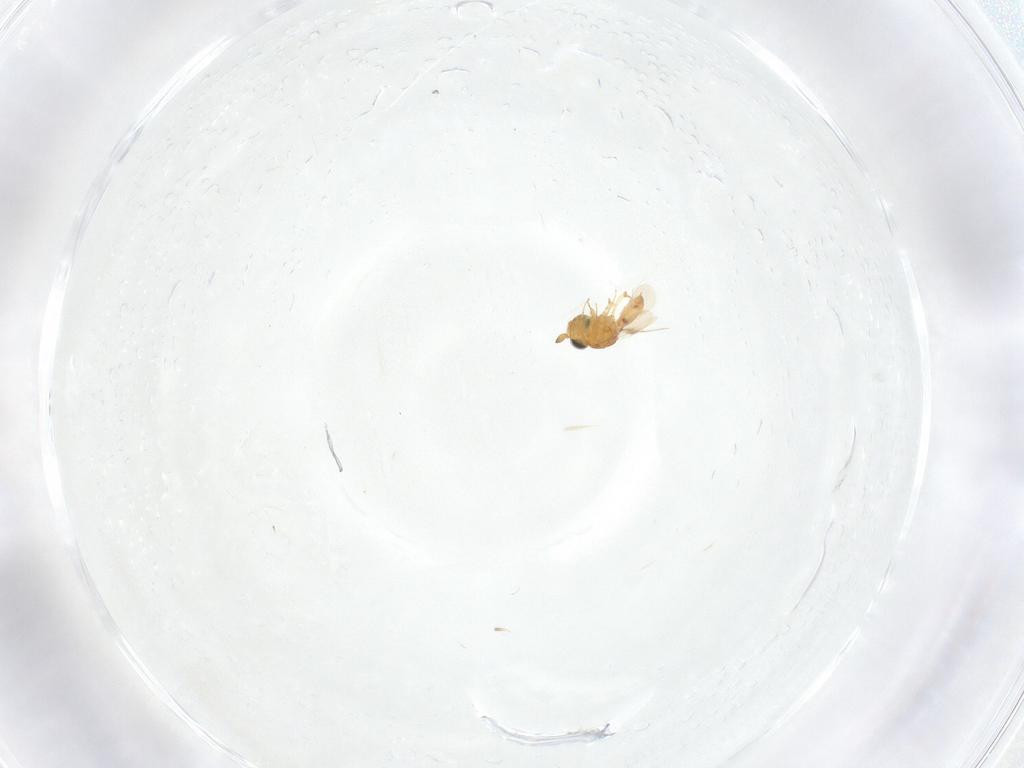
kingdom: Animalia
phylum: Arthropoda
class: Insecta
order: Hymenoptera
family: Scelionidae
